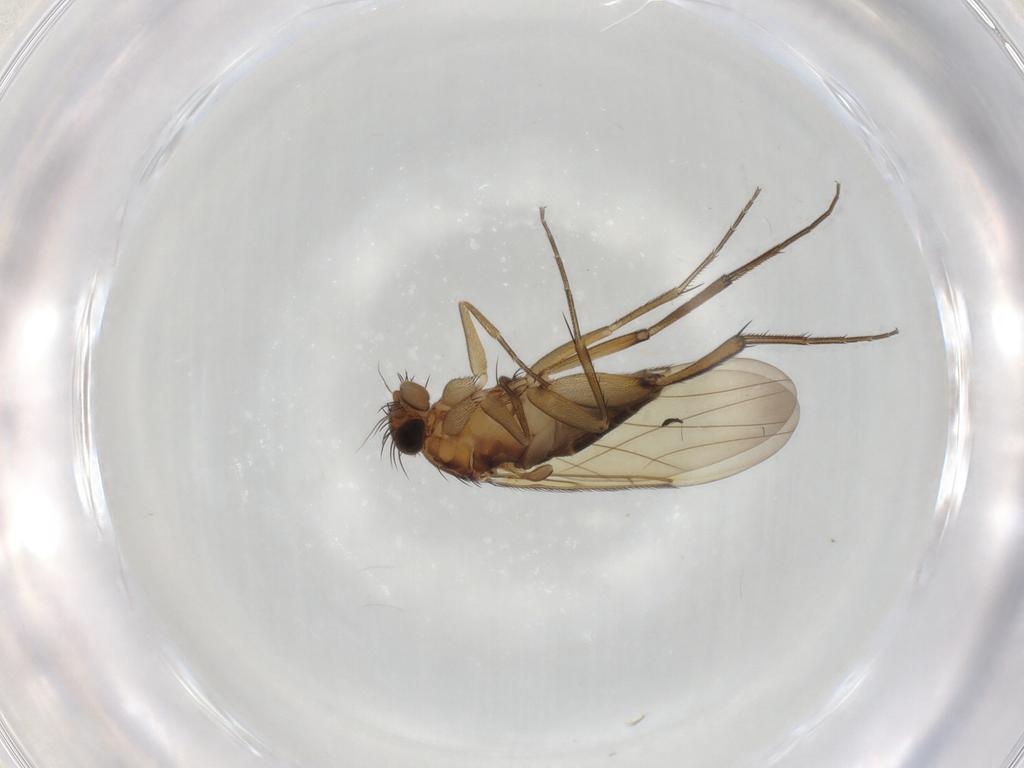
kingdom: Animalia
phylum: Arthropoda
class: Insecta
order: Diptera
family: Phoridae
